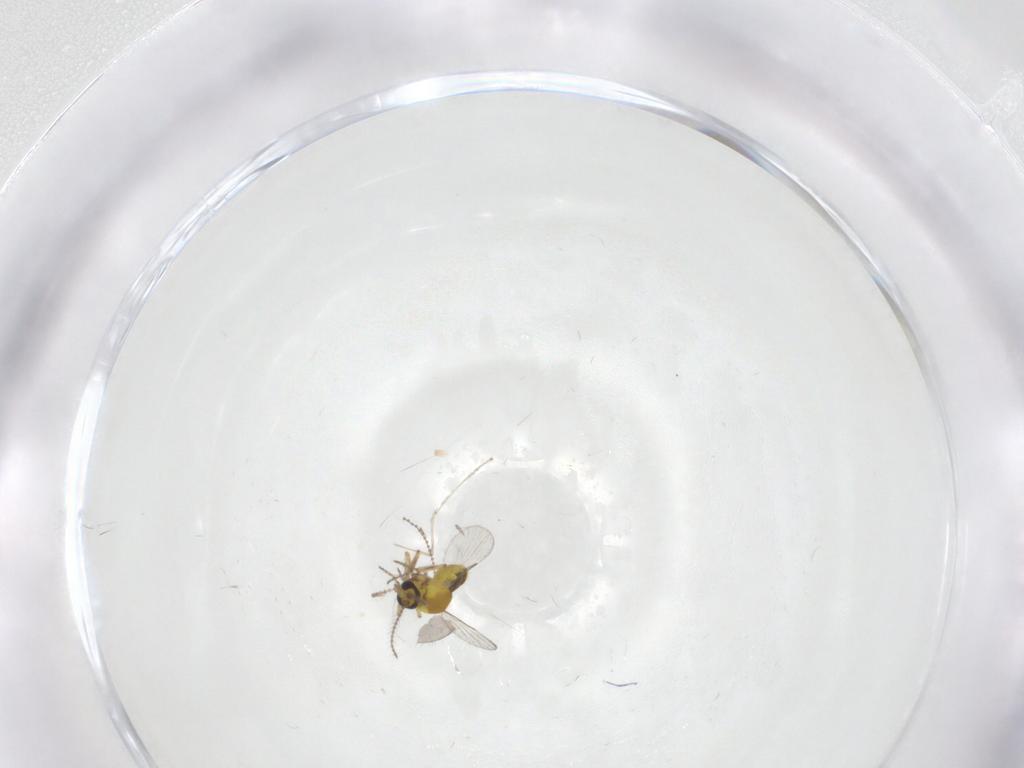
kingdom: Animalia
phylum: Arthropoda
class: Insecta
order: Diptera
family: Cecidomyiidae
